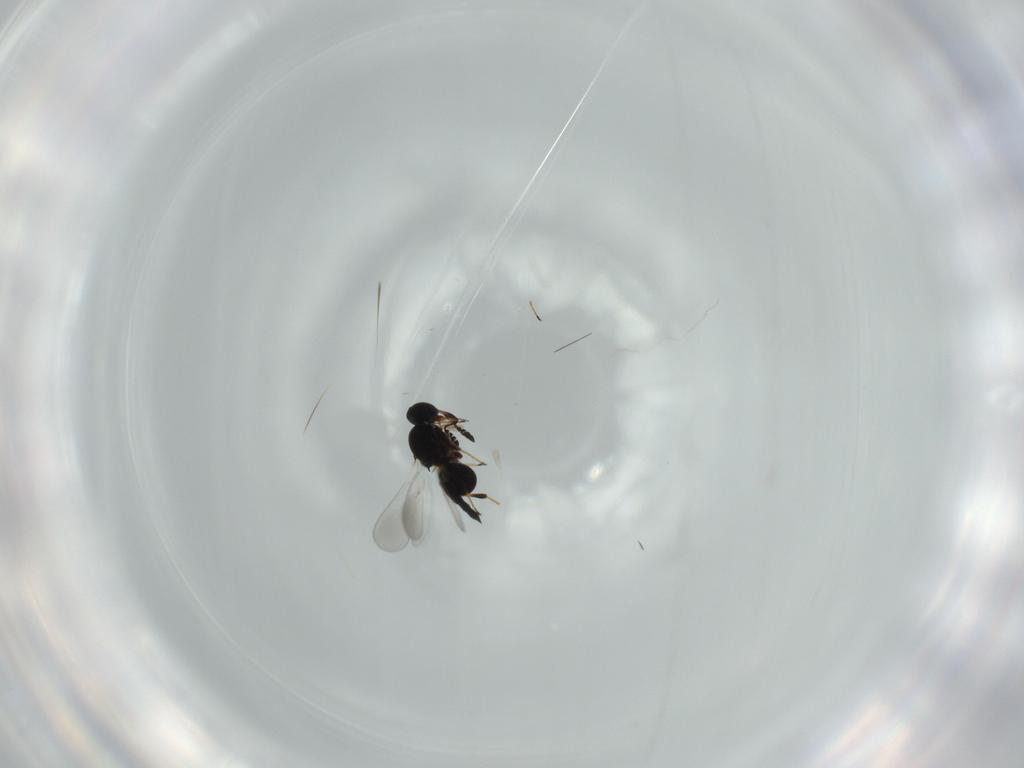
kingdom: Animalia
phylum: Arthropoda
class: Insecta
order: Hymenoptera
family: Platygastridae
